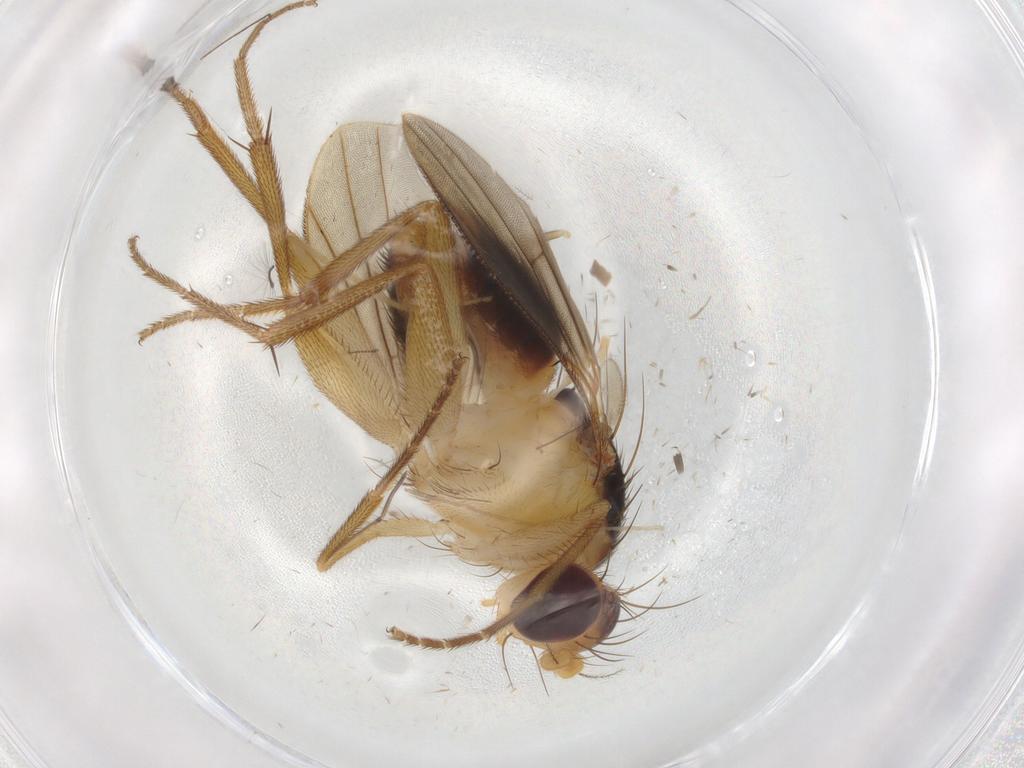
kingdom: Animalia
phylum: Arthropoda
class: Insecta
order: Diptera
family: Clusiidae
